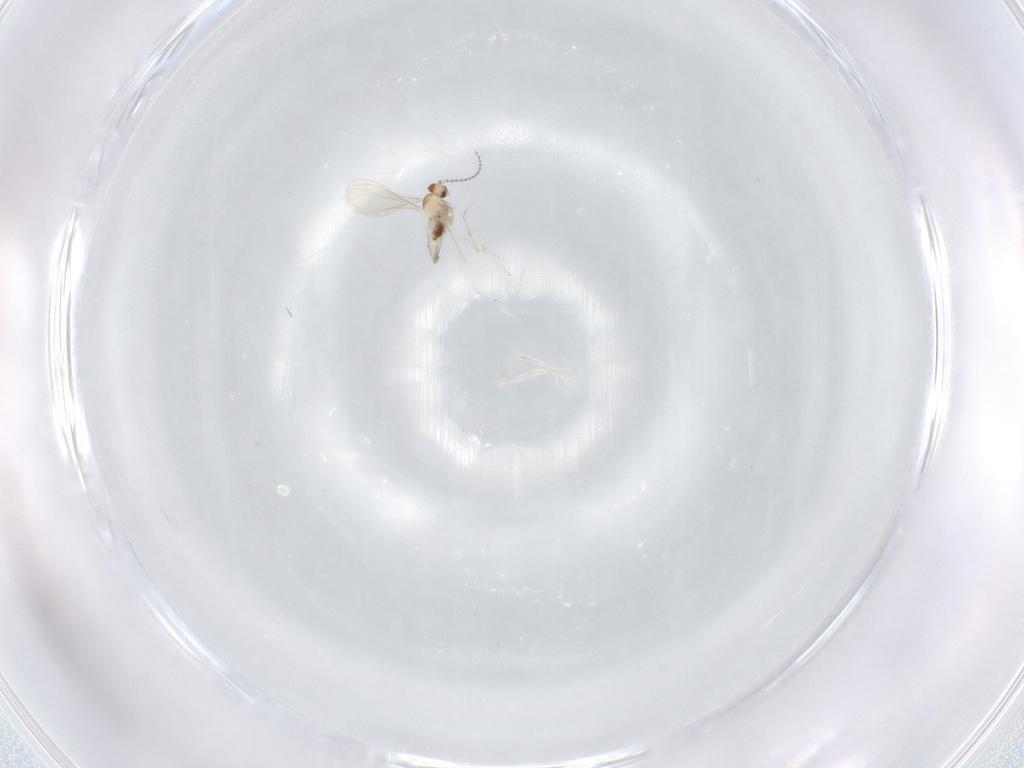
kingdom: Animalia
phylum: Arthropoda
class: Insecta
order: Diptera
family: Cecidomyiidae
